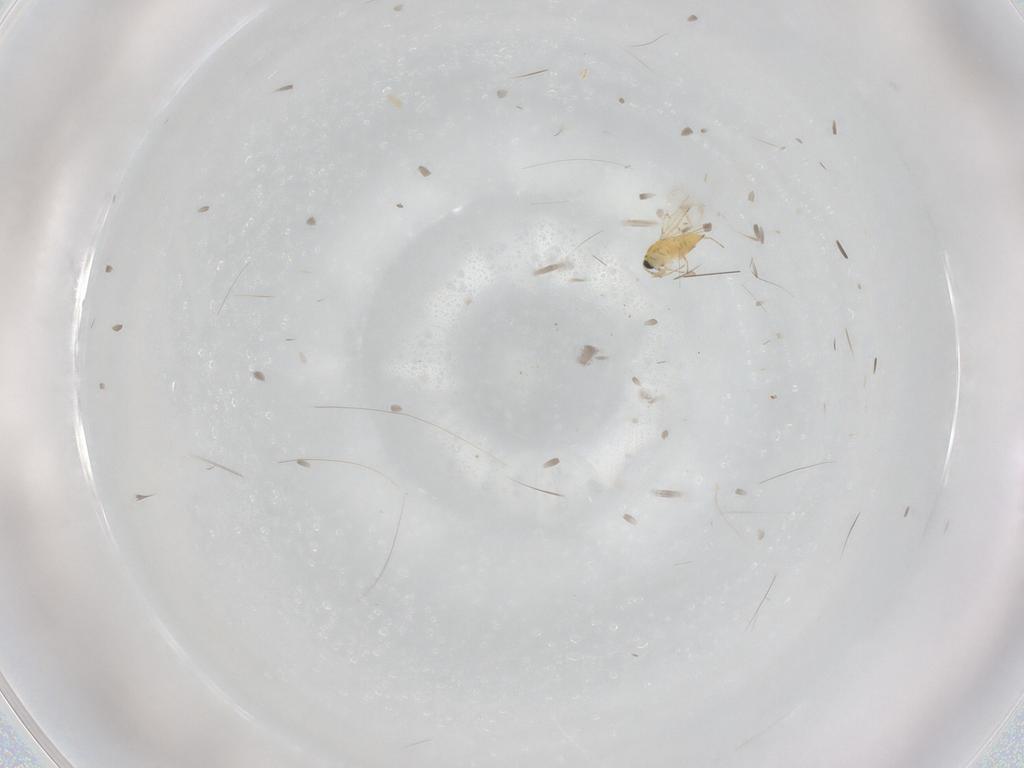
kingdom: Animalia
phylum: Arthropoda
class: Insecta
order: Hymenoptera
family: Trichogrammatidae
